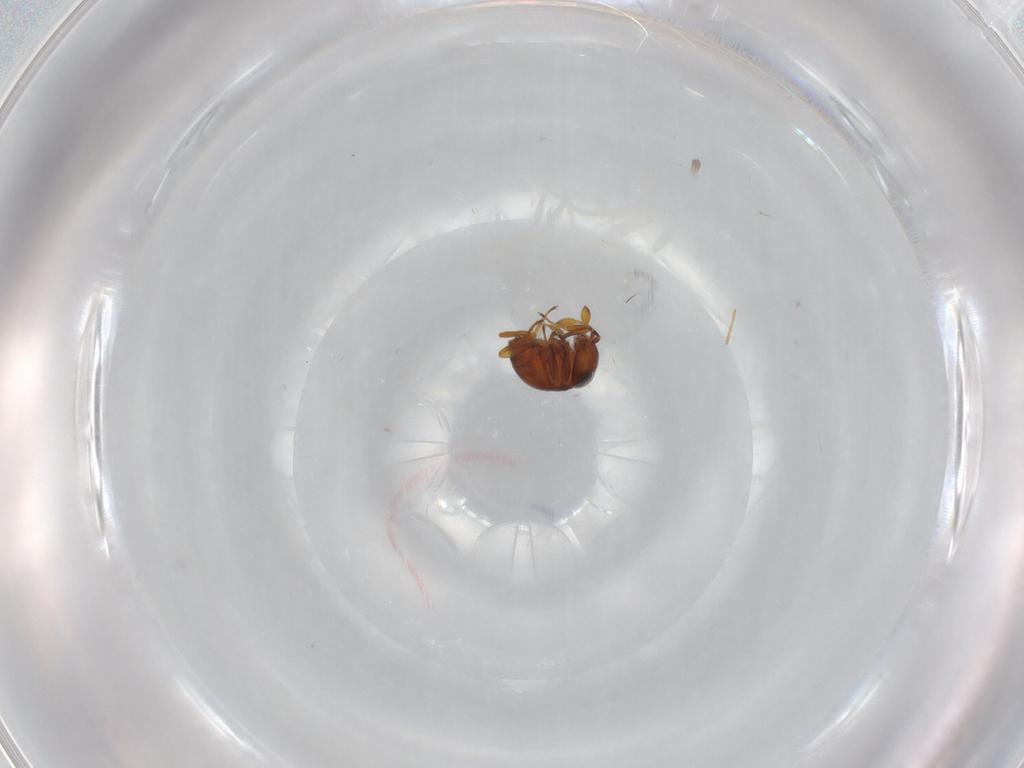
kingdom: Animalia
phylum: Arthropoda
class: Insecta
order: Hymenoptera
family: Scelionidae
